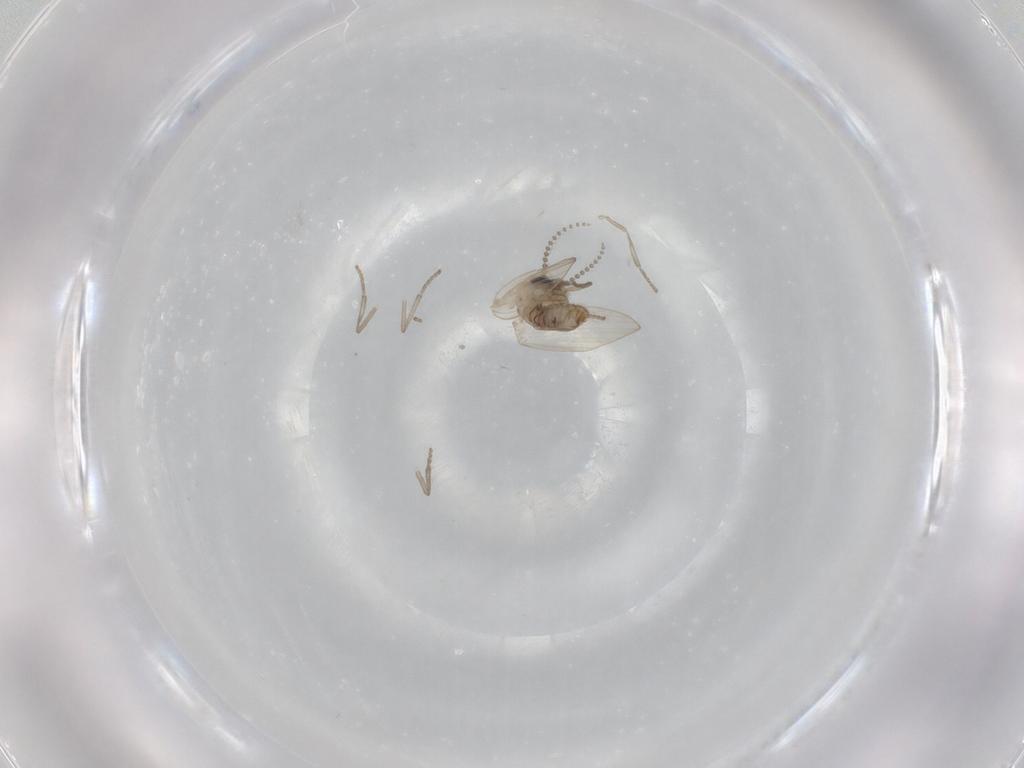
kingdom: Animalia
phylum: Arthropoda
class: Insecta
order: Diptera
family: Psychodidae
